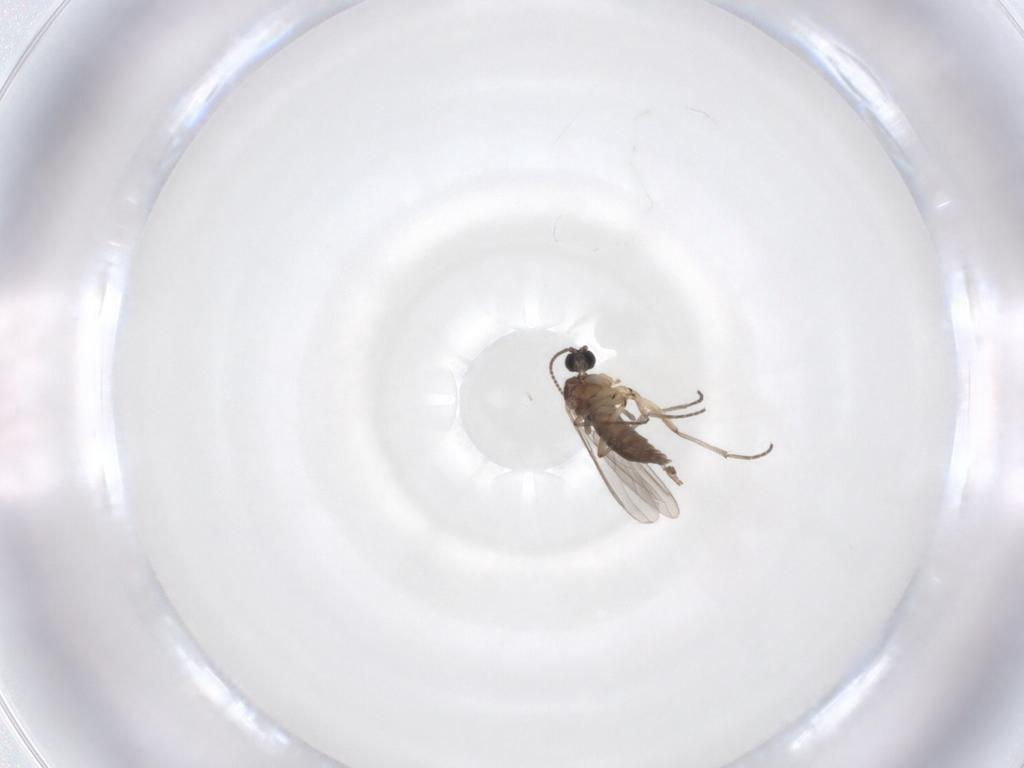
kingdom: Animalia
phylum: Arthropoda
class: Insecta
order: Diptera
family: Sciaridae
